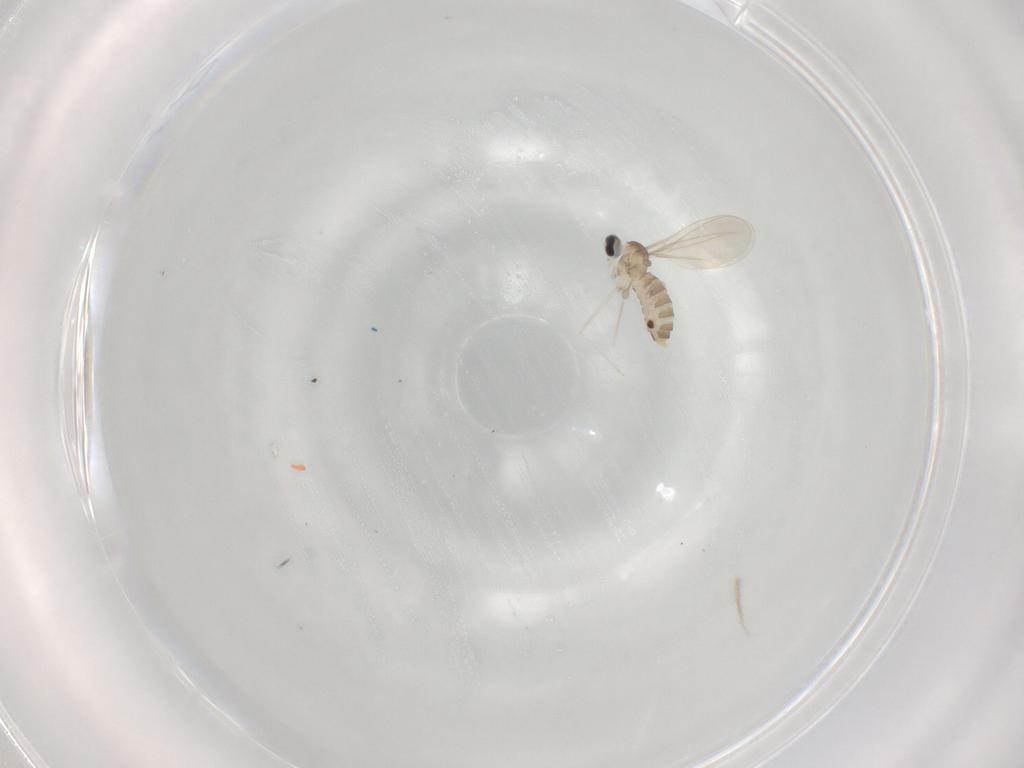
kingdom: Animalia
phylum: Arthropoda
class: Insecta
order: Diptera
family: Cecidomyiidae
